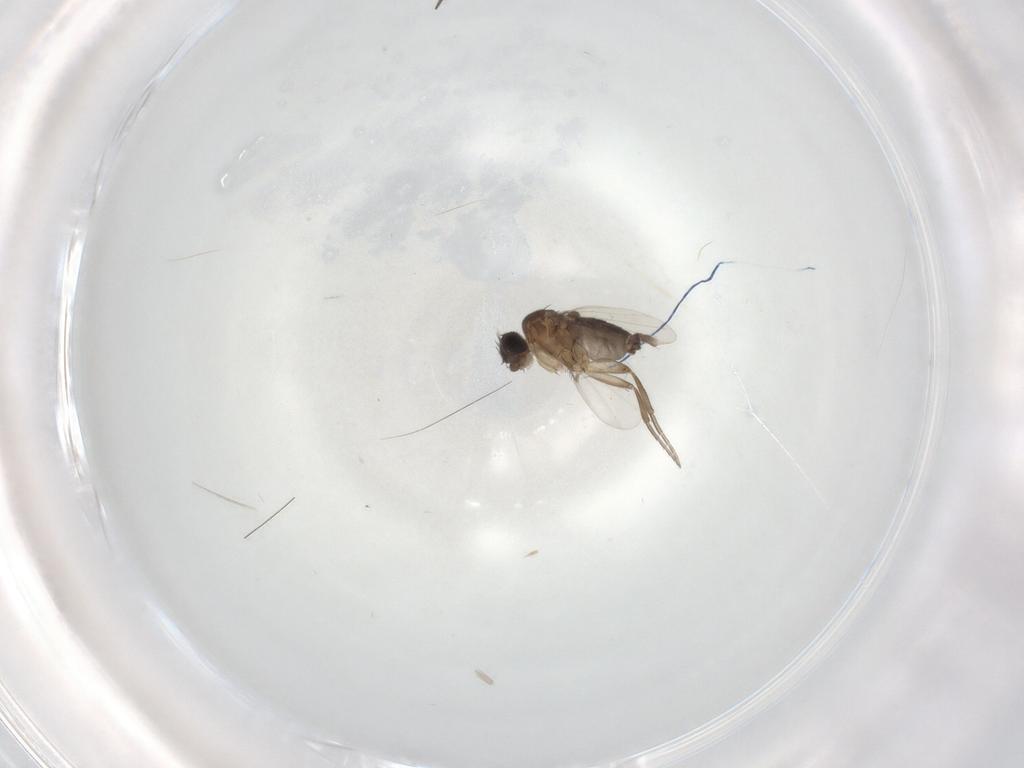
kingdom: Animalia
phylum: Arthropoda
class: Insecta
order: Diptera
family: Phoridae
